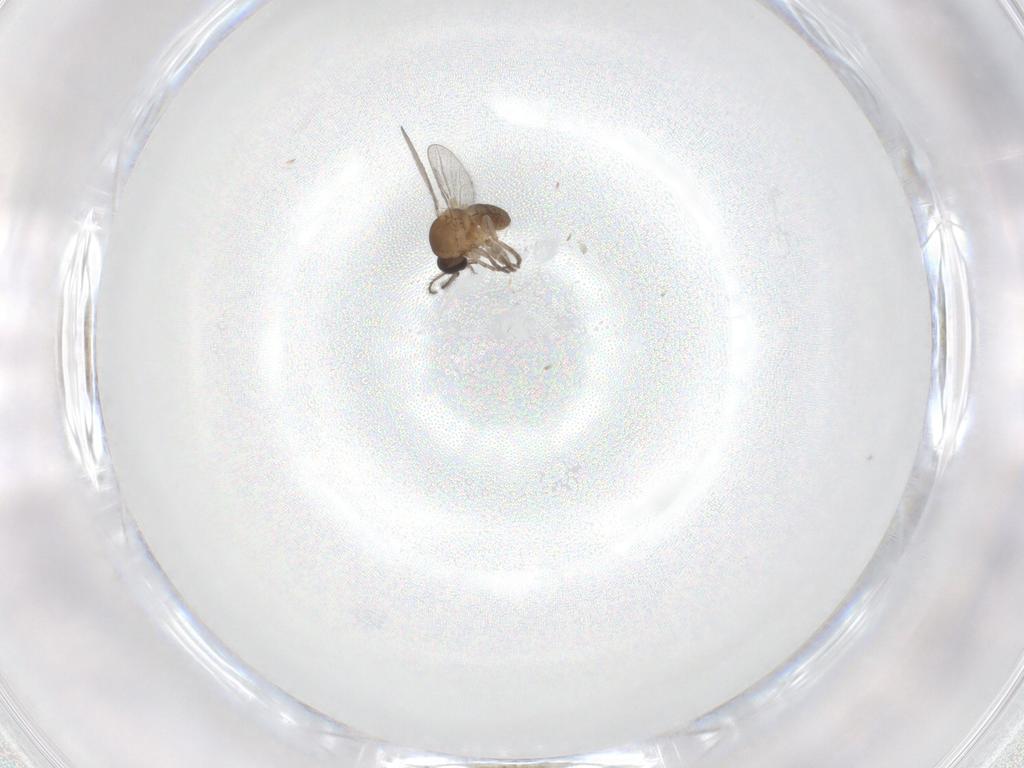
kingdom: Animalia
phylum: Arthropoda
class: Insecta
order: Diptera
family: Calliphoridae
